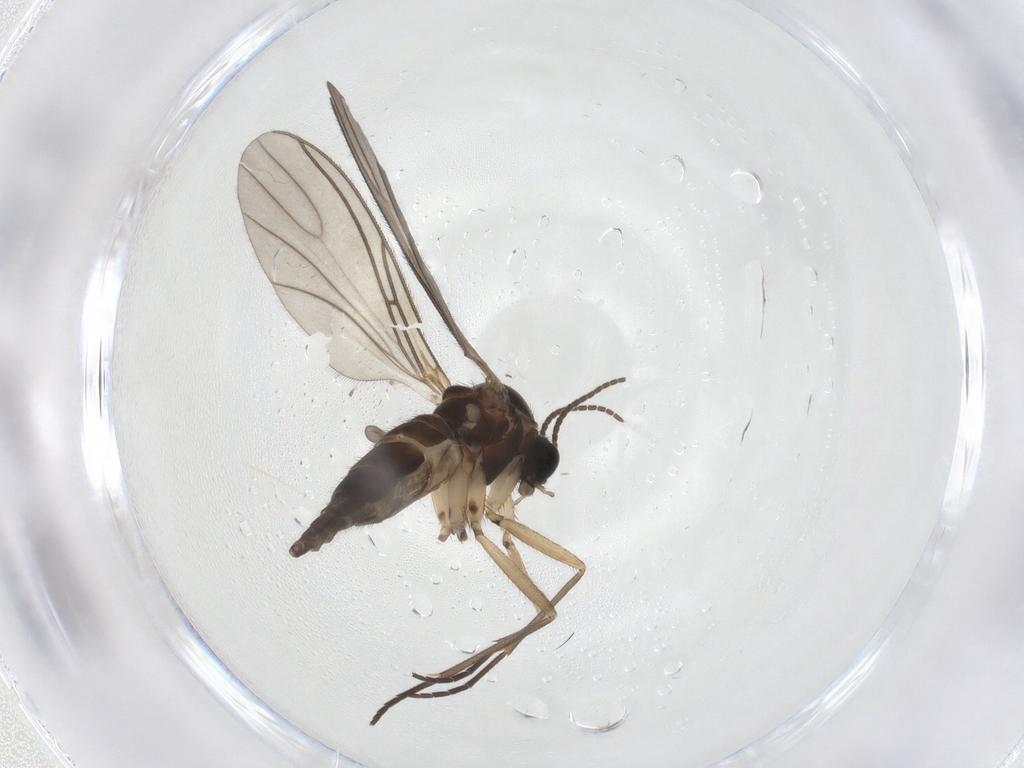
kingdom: Animalia
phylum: Arthropoda
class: Insecta
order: Diptera
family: Sciaridae
